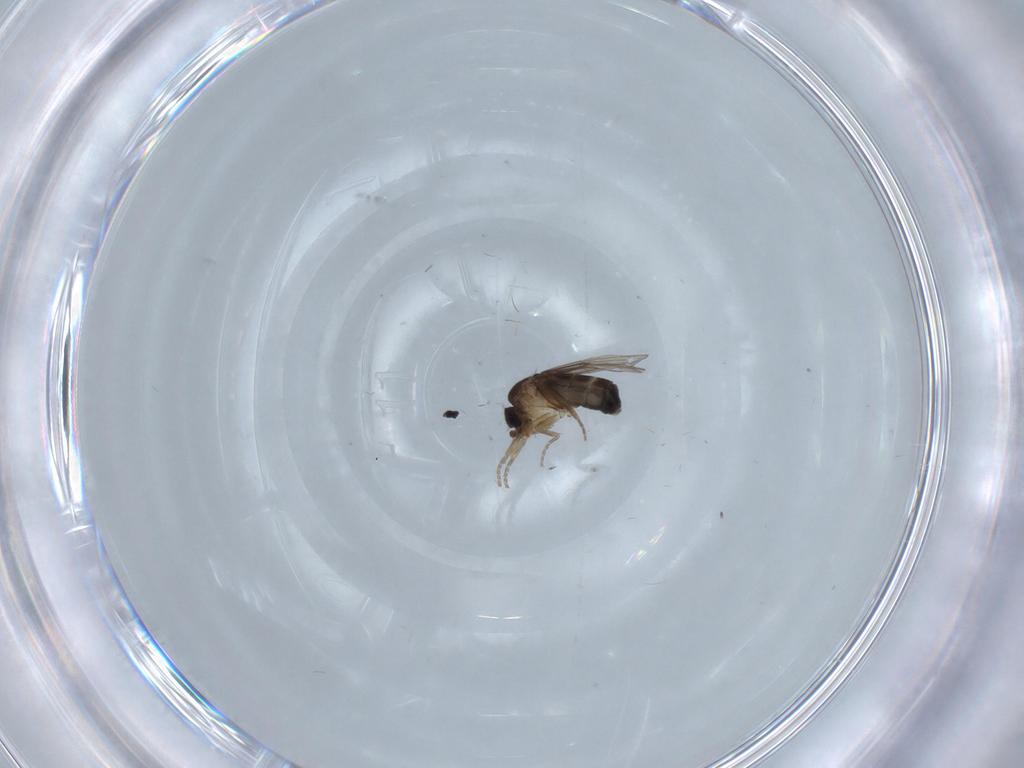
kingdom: Animalia
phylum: Arthropoda
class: Insecta
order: Diptera
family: Phoridae
